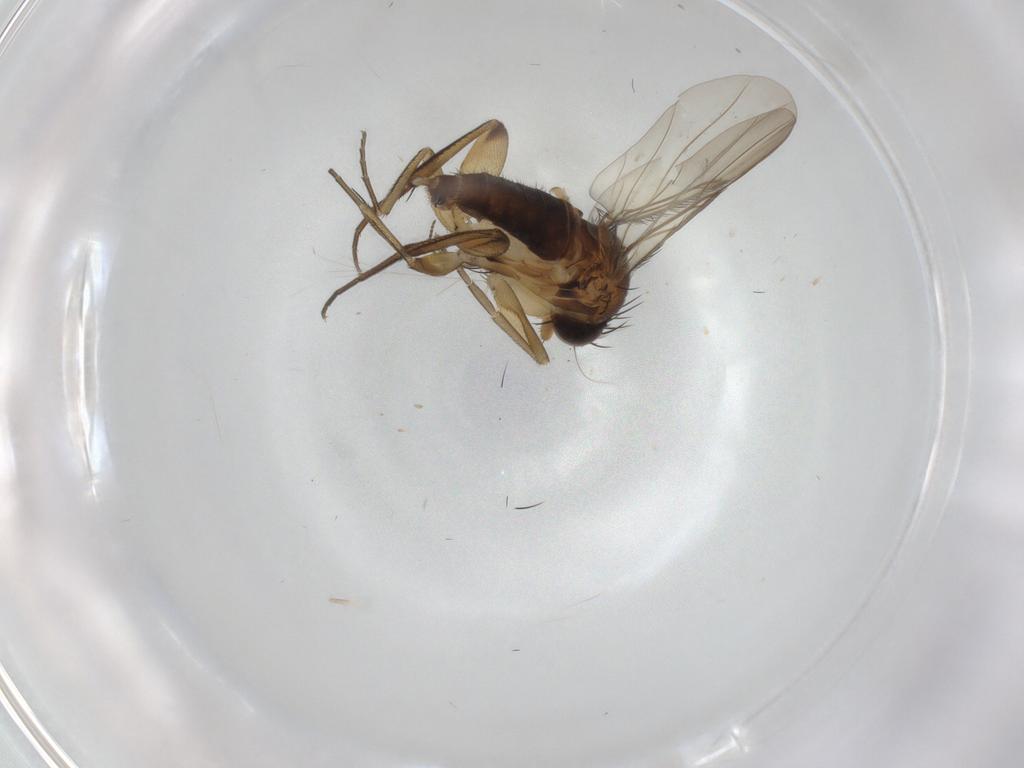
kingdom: Animalia
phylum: Arthropoda
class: Insecta
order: Diptera
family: Phoridae
